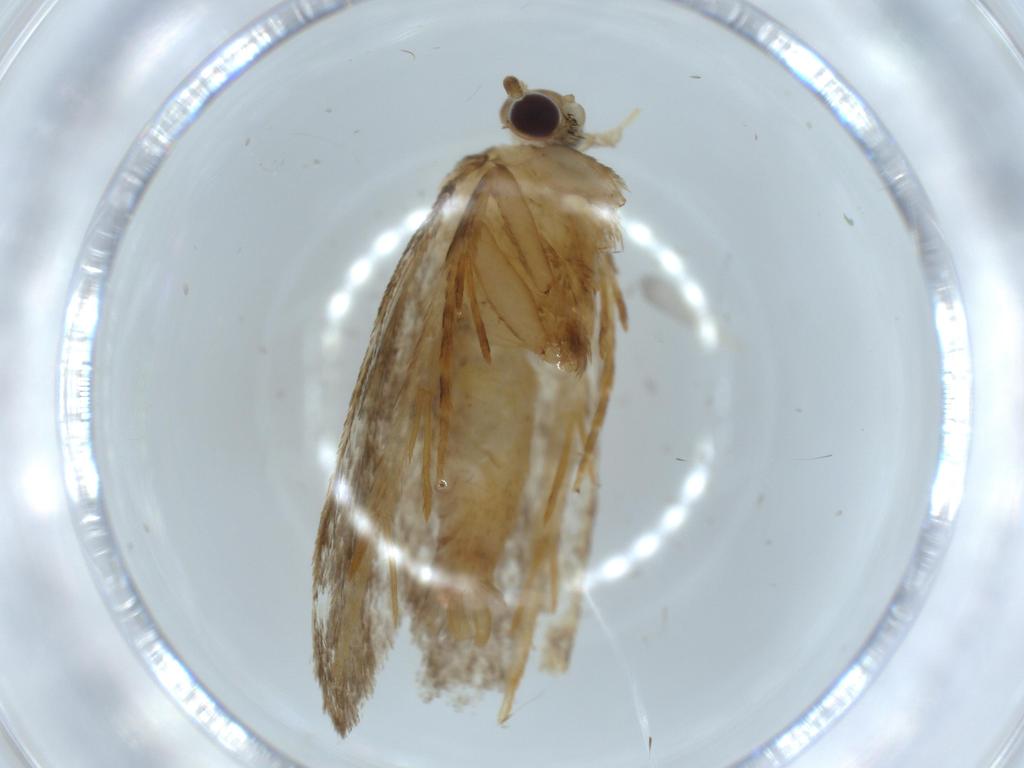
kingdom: Animalia
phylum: Arthropoda
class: Insecta
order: Lepidoptera
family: Tineidae
